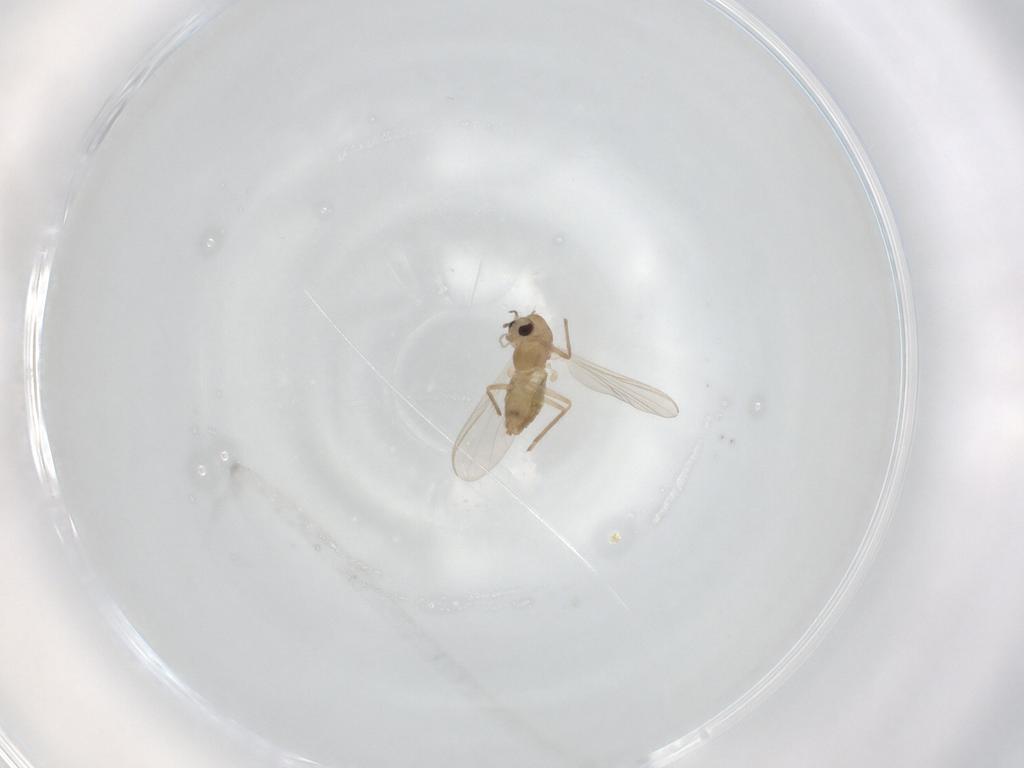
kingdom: Animalia
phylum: Arthropoda
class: Insecta
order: Diptera
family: Chironomidae
